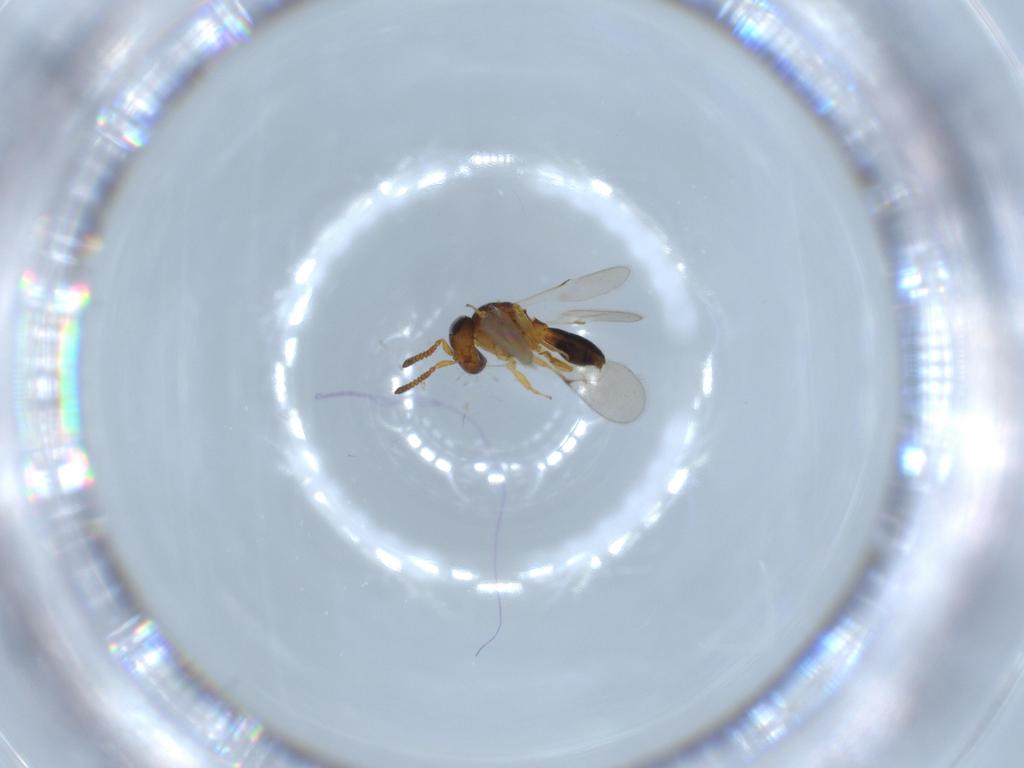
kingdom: Animalia
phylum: Arthropoda
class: Insecta
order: Hymenoptera
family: Scelionidae
